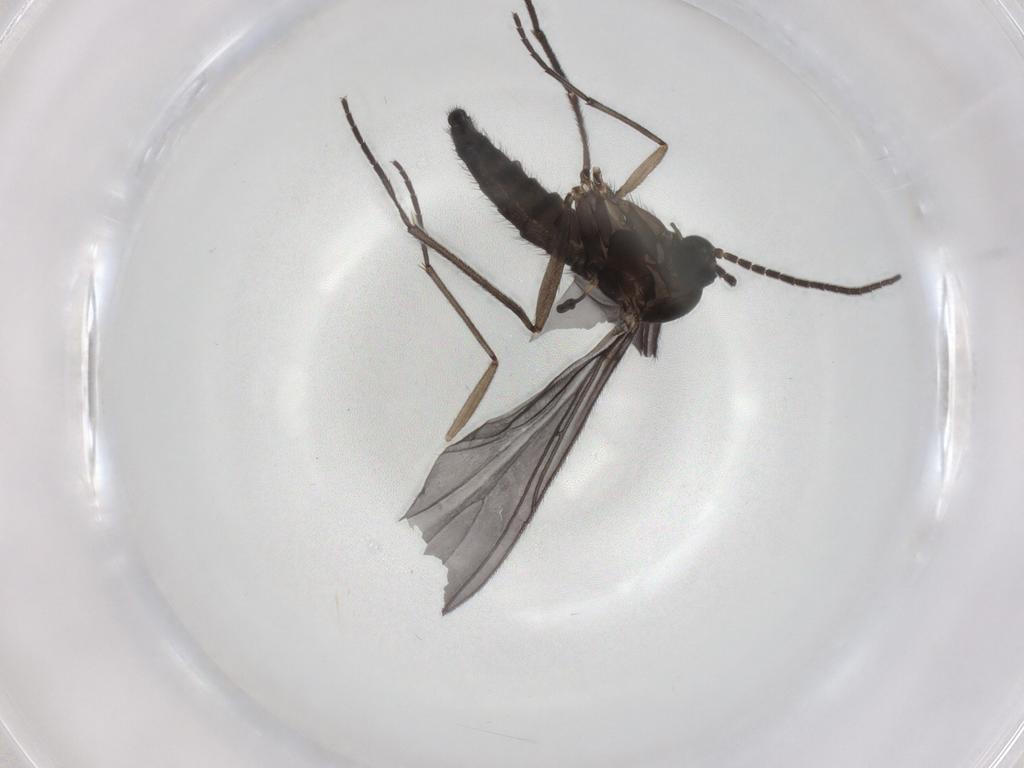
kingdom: Animalia
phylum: Arthropoda
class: Insecta
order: Diptera
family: Sciaridae
